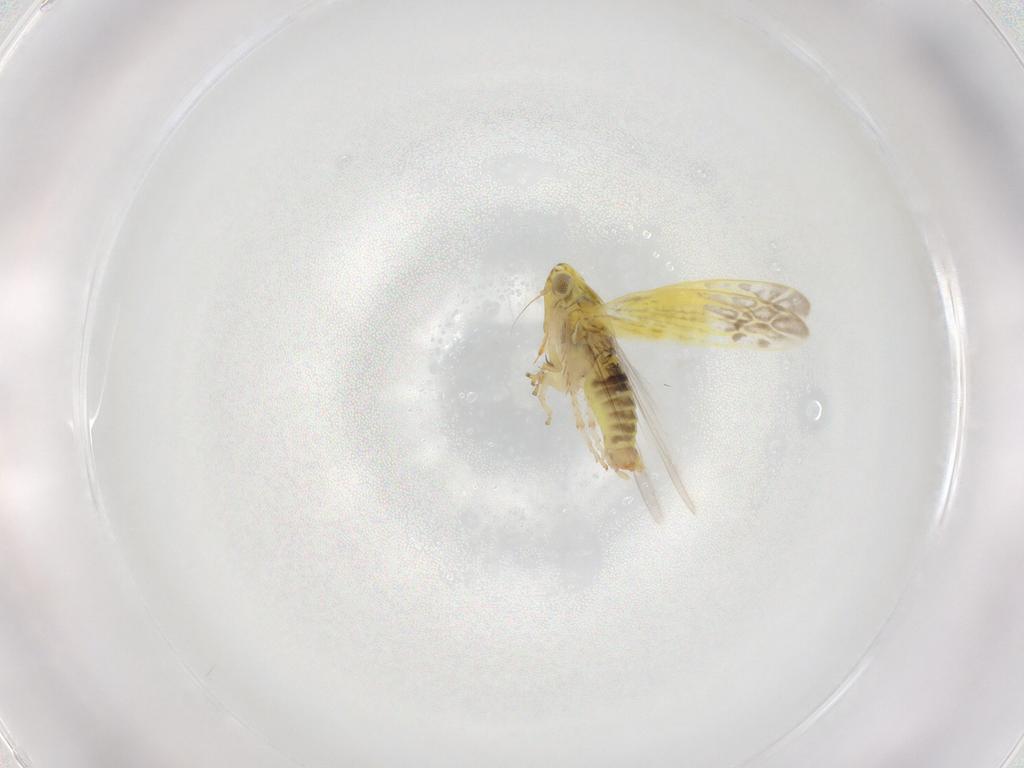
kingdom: Animalia
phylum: Arthropoda
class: Insecta
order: Hemiptera
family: Cicadellidae
